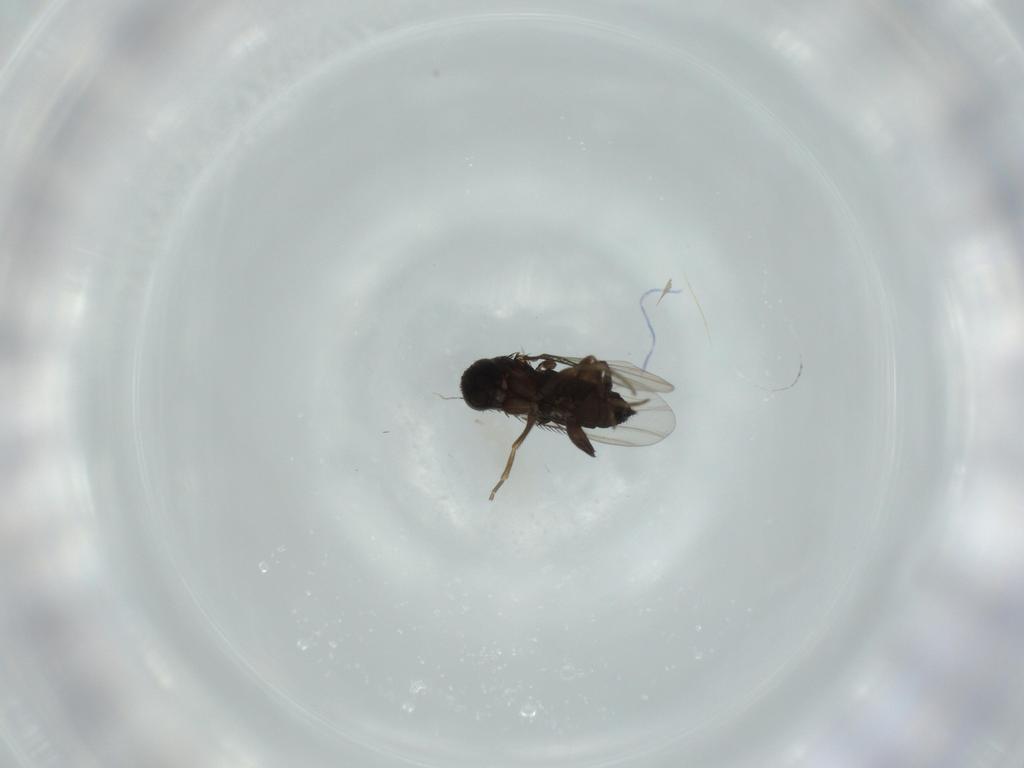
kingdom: Animalia
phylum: Arthropoda
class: Insecta
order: Diptera
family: Phoridae
